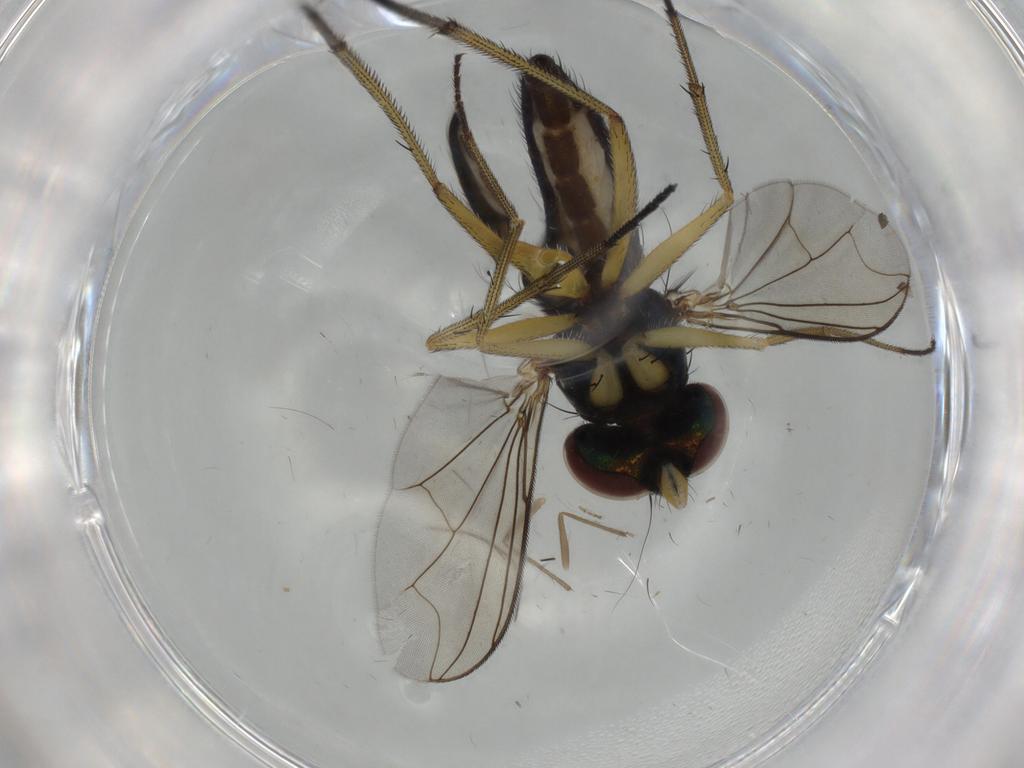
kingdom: Animalia
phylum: Arthropoda
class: Insecta
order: Diptera
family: Dolichopodidae
